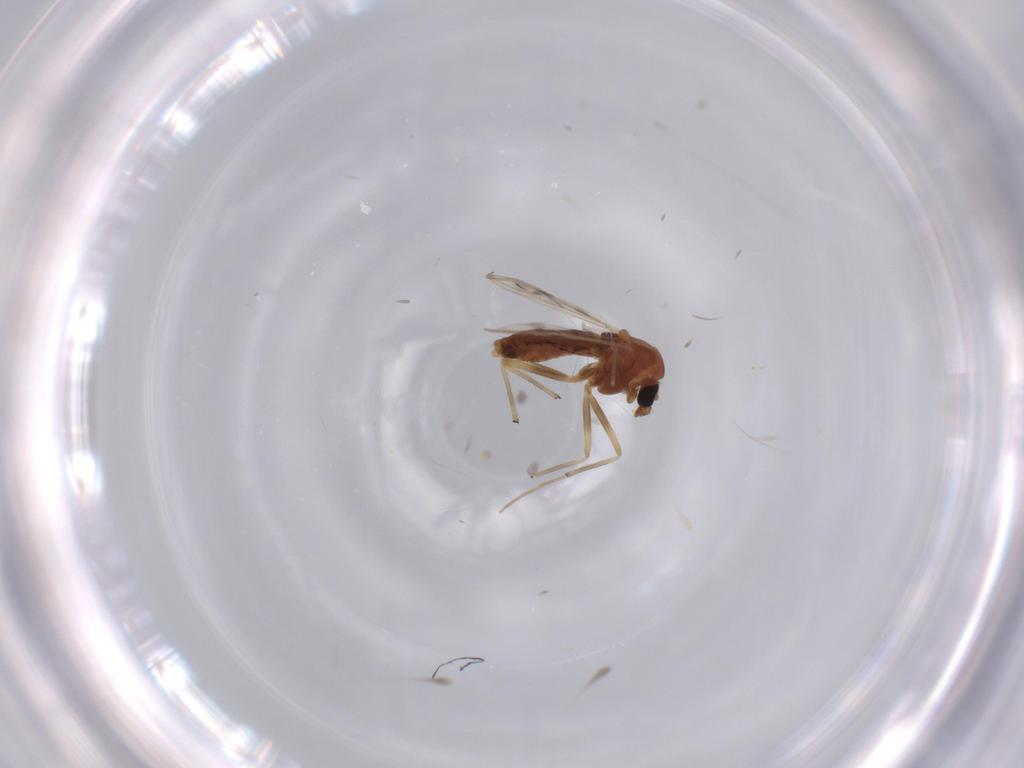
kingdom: Animalia
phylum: Arthropoda
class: Insecta
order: Diptera
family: Chironomidae
